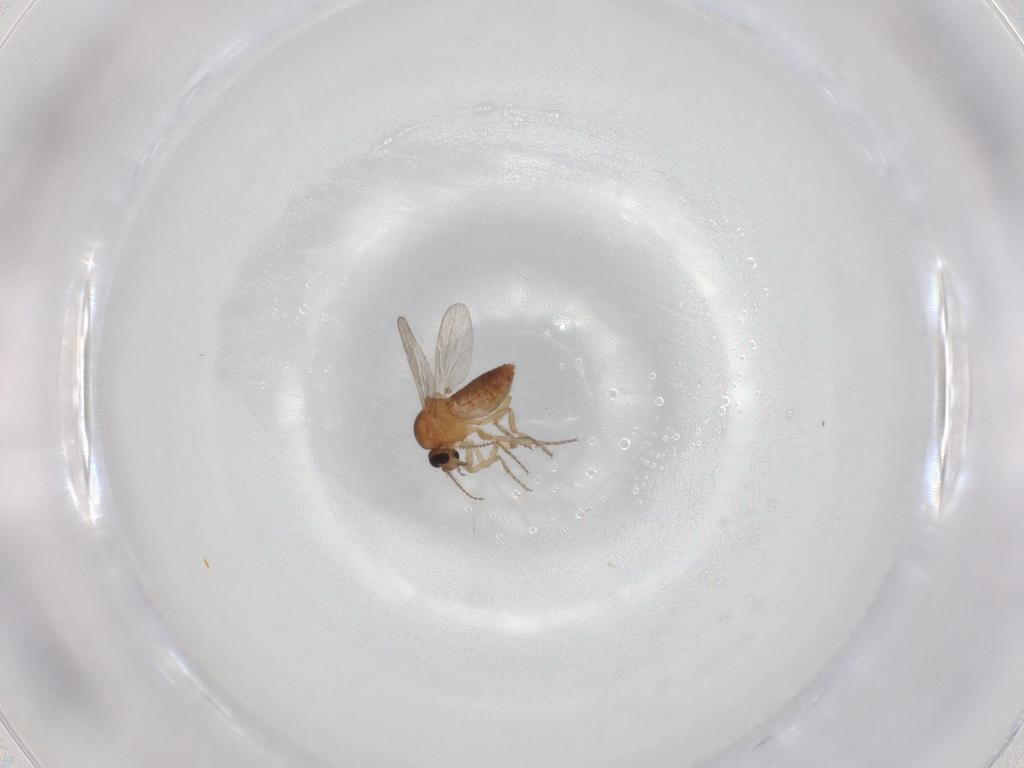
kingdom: Animalia
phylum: Arthropoda
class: Insecta
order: Diptera
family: Ceratopogonidae
